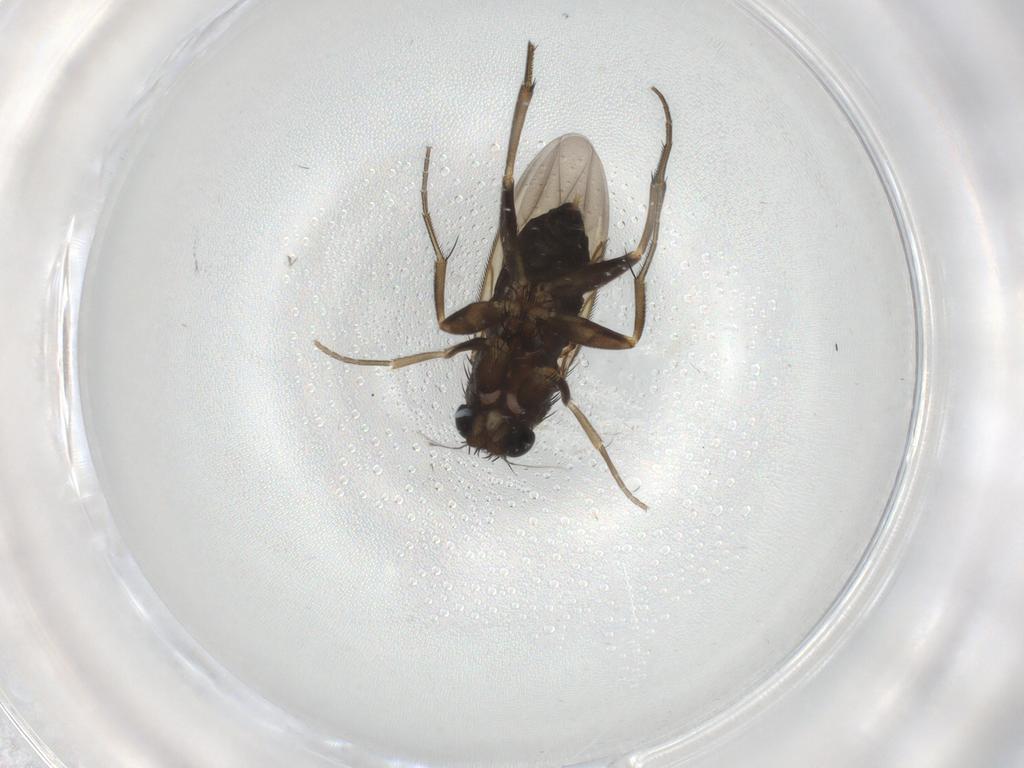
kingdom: Animalia
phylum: Arthropoda
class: Insecta
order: Diptera
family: Phoridae
